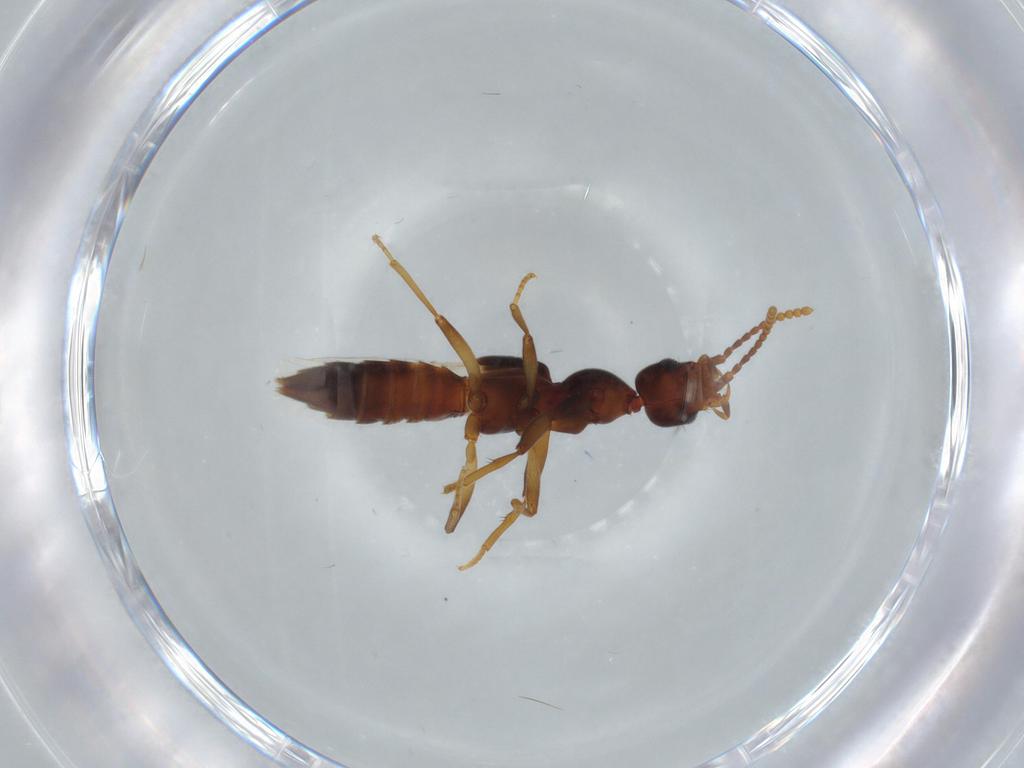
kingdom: Animalia
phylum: Arthropoda
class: Insecta
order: Coleoptera
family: Staphylinidae
